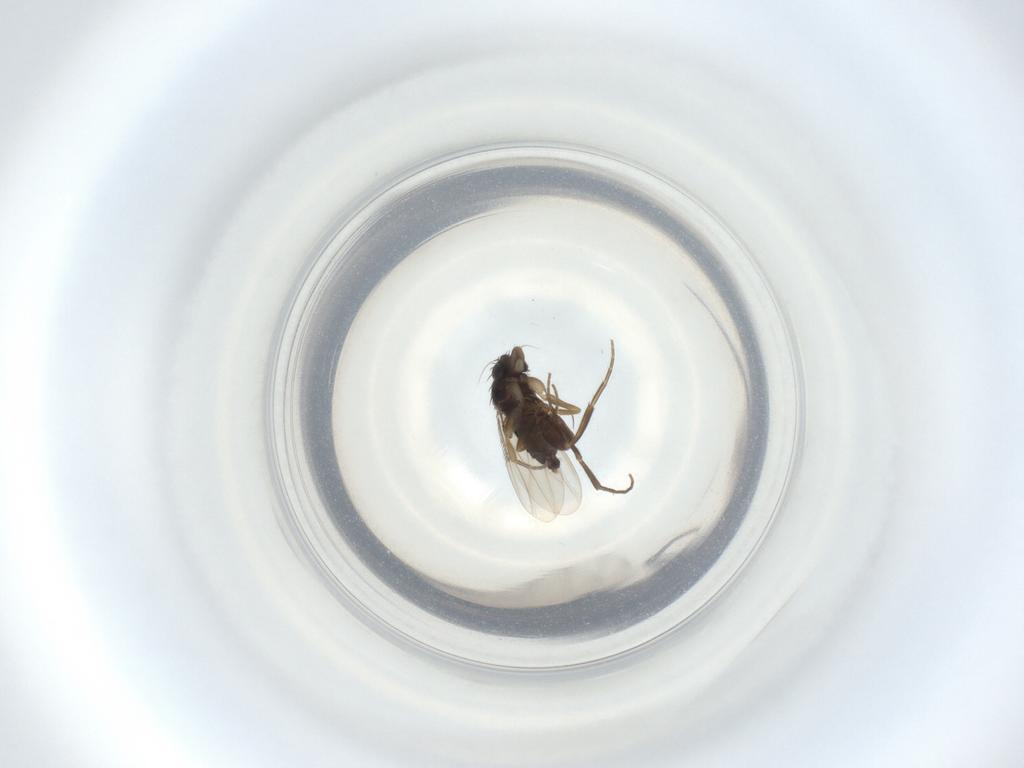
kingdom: Animalia
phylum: Arthropoda
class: Insecta
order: Diptera
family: Phoridae
